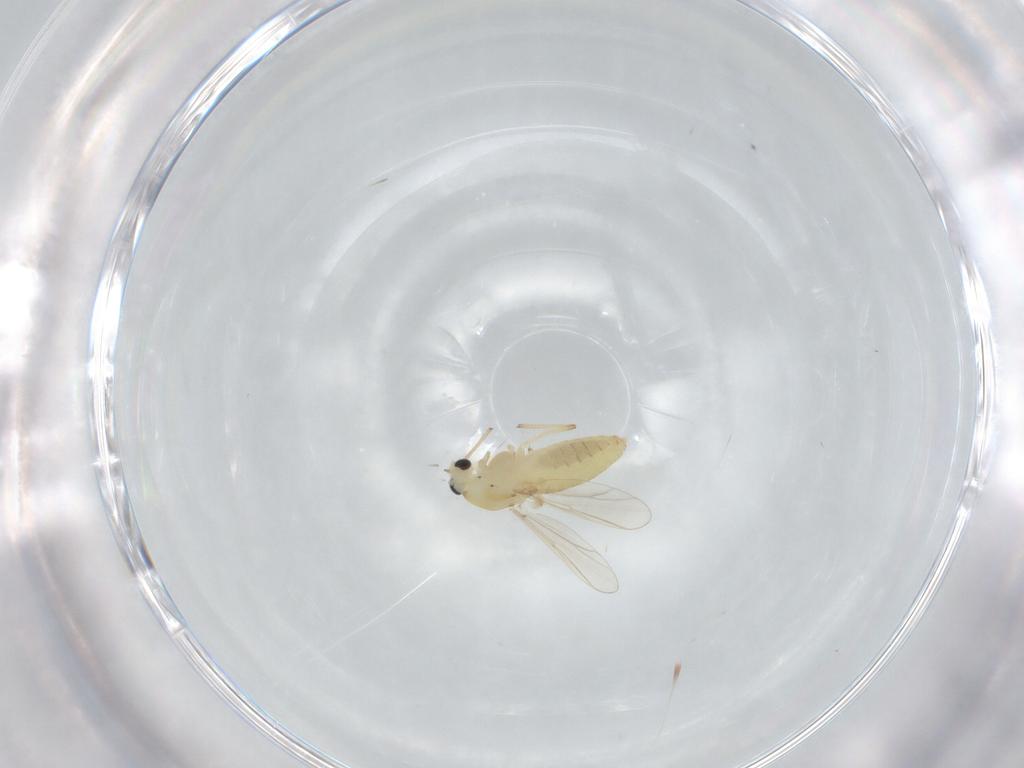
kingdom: Animalia
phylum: Arthropoda
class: Insecta
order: Diptera
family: Chironomidae
